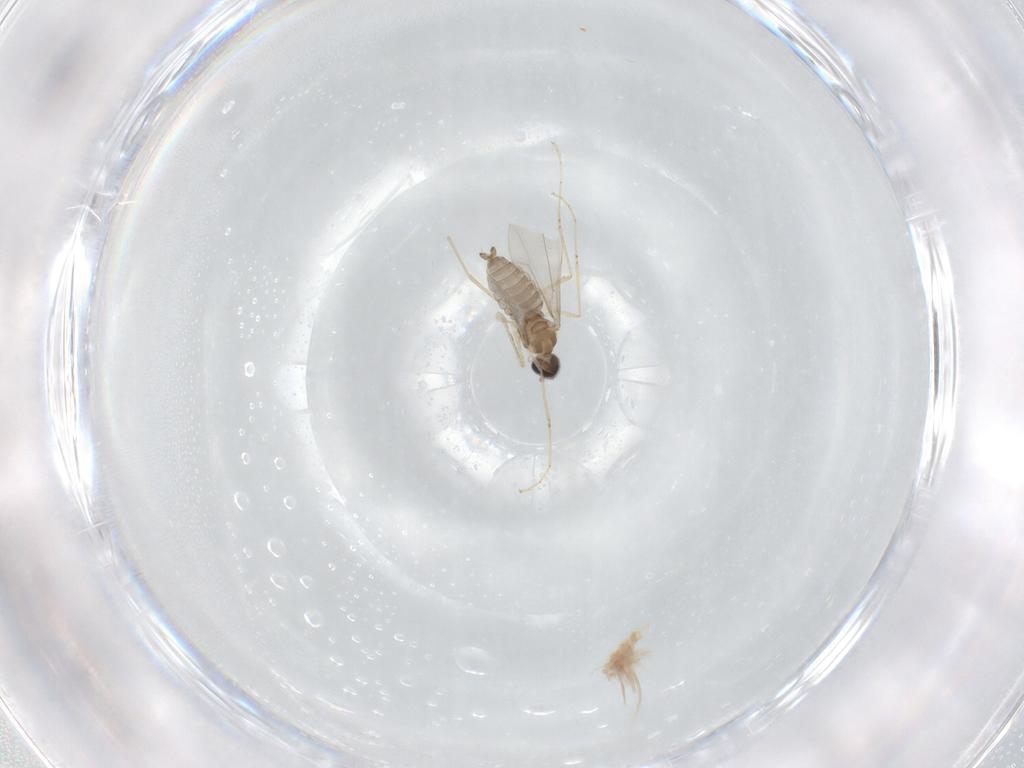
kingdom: Animalia
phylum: Arthropoda
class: Insecta
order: Diptera
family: Cecidomyiidae
